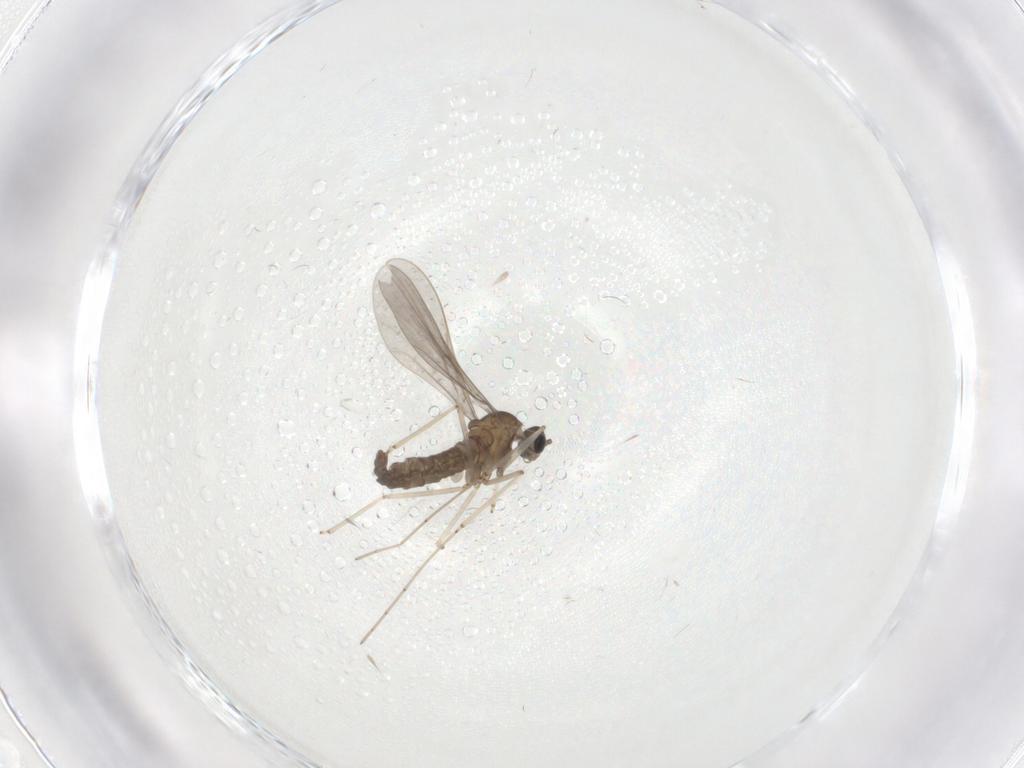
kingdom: Animalia
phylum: Arthropoda
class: Insecta
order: Diptera
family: Cecidomyiidae
